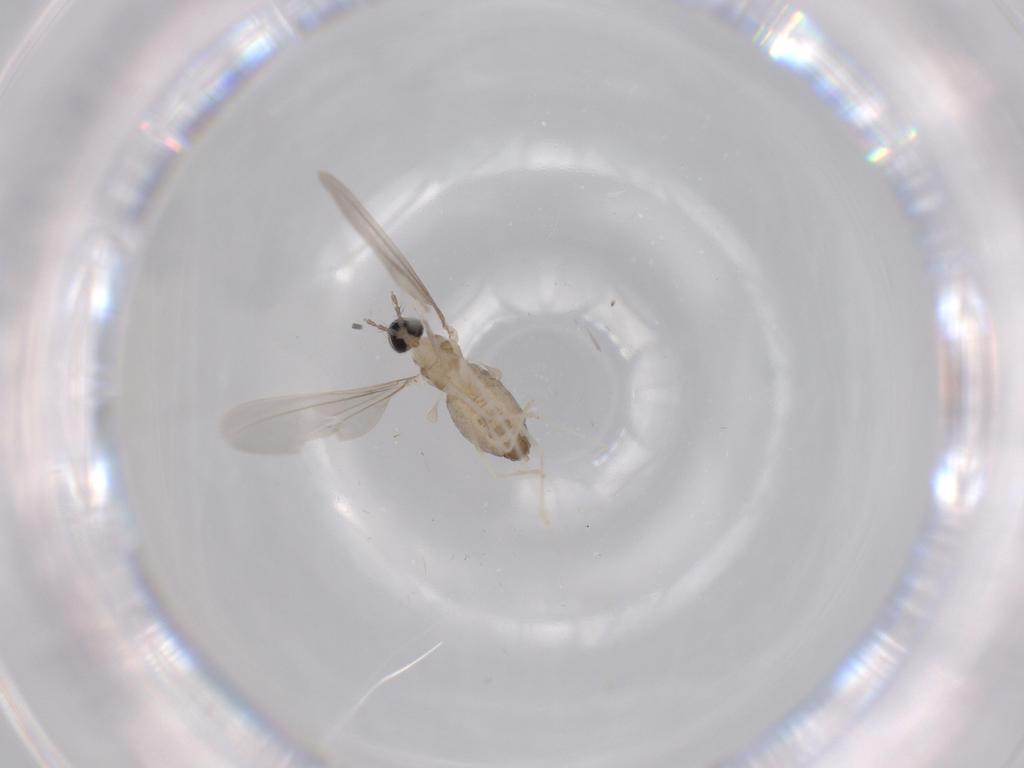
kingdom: Animalia
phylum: Arthropoda
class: Insecta
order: Diptera
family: Cecidomyiidae
